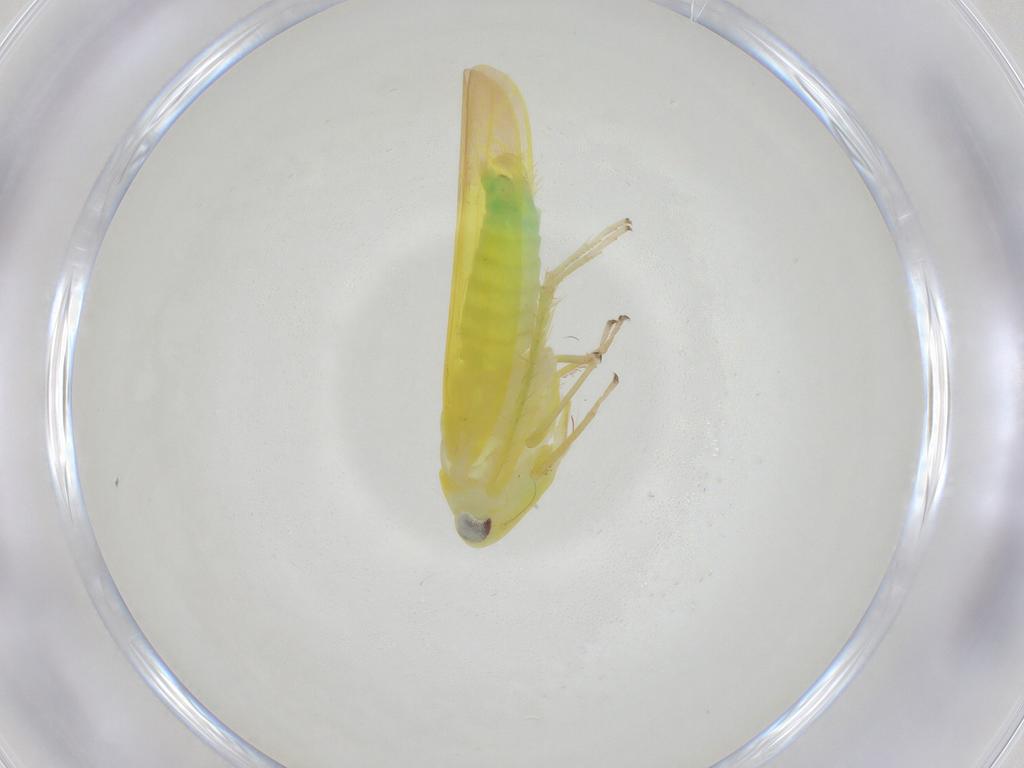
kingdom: Animalia
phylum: Arthropoda
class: Insecta
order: Hemiptera
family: Cicadellidae
